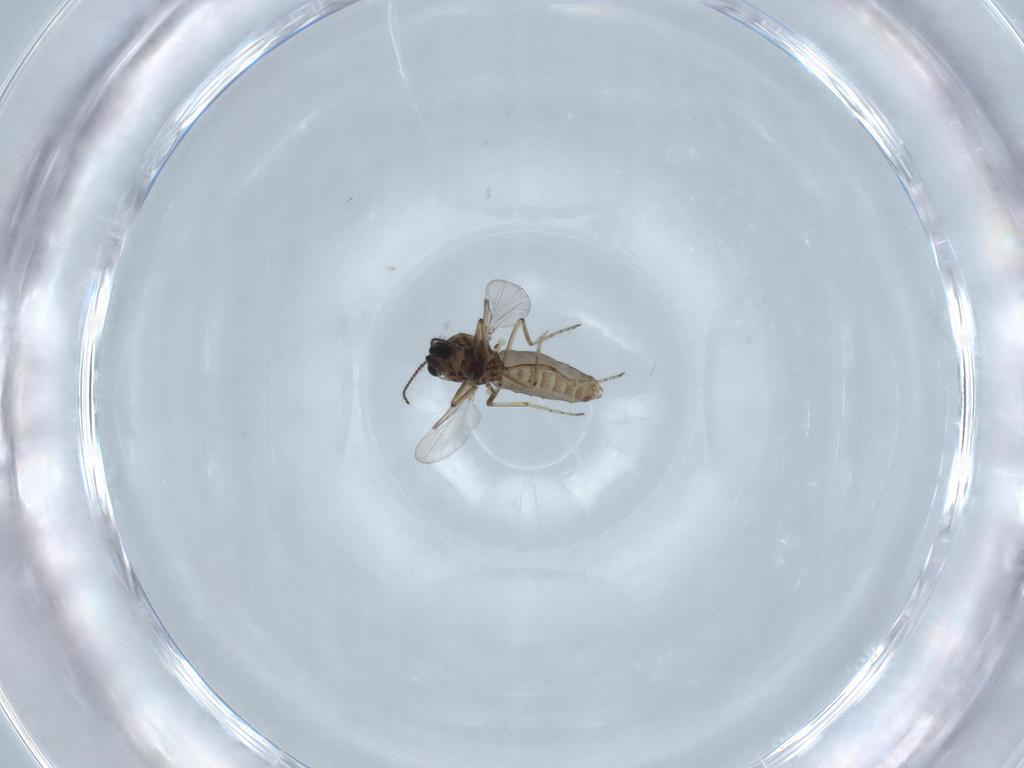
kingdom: Animalia
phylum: Arthropoda
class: Insecta
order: Diptera
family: Ceratopogonidae
